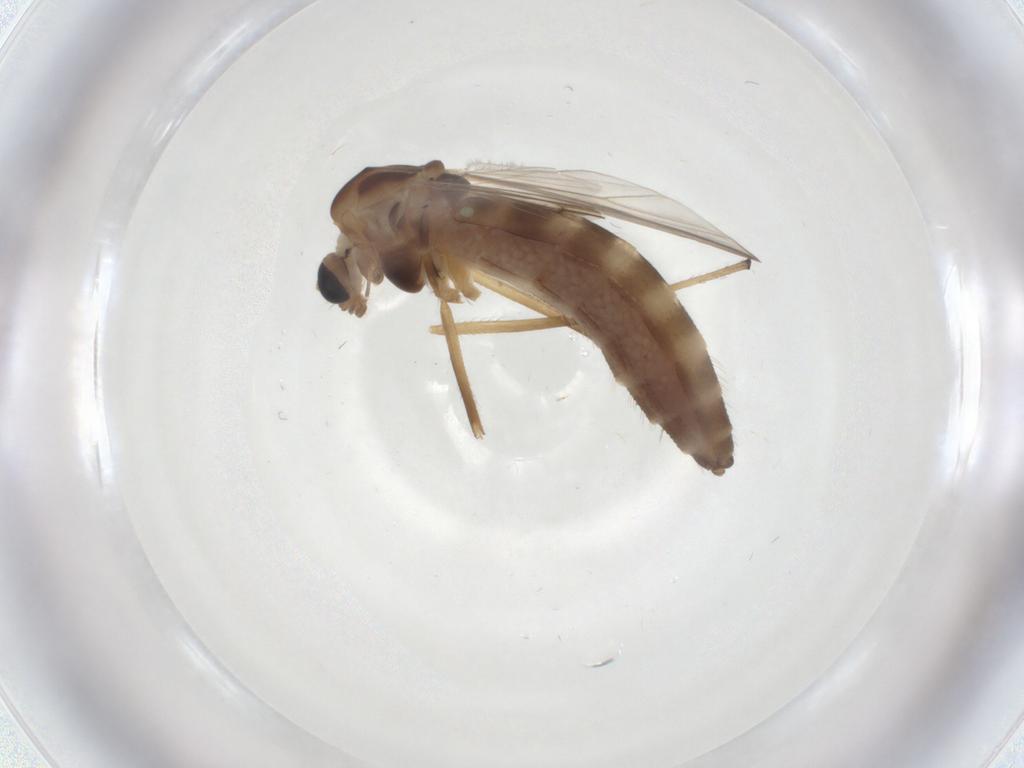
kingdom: Animalia
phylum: Arthropoda
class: Insecta
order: Diptera
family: Chironomidae
